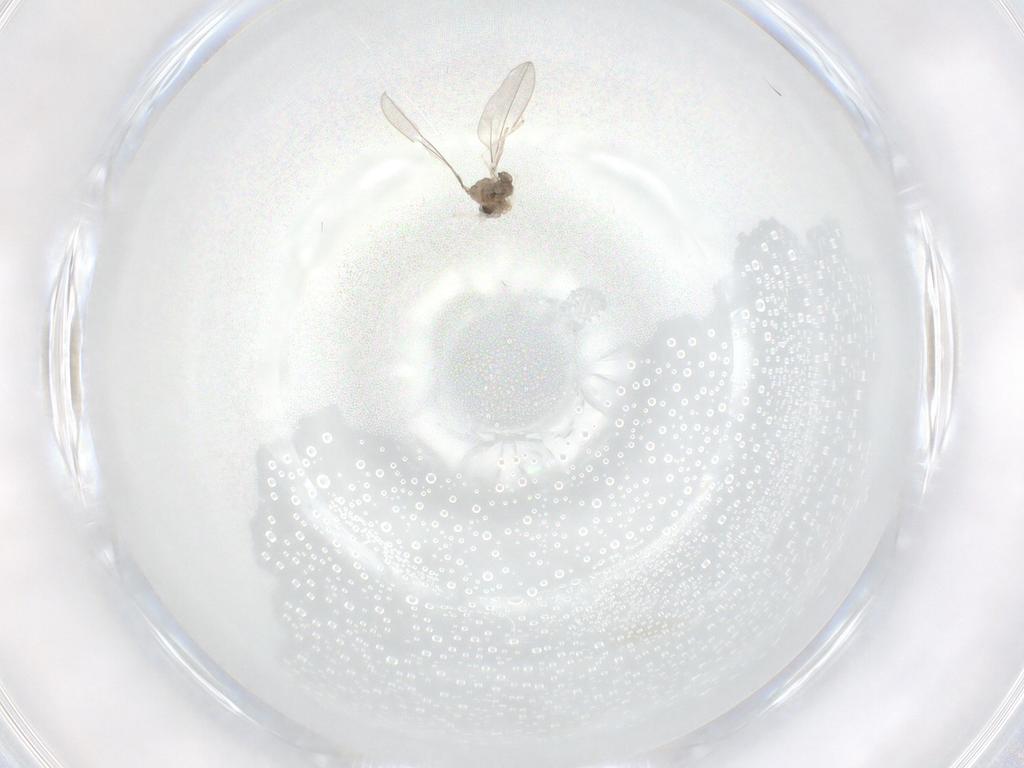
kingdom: Animalia
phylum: Arthropoda
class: Insecta
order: Diptera
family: Cecidomyiidae
